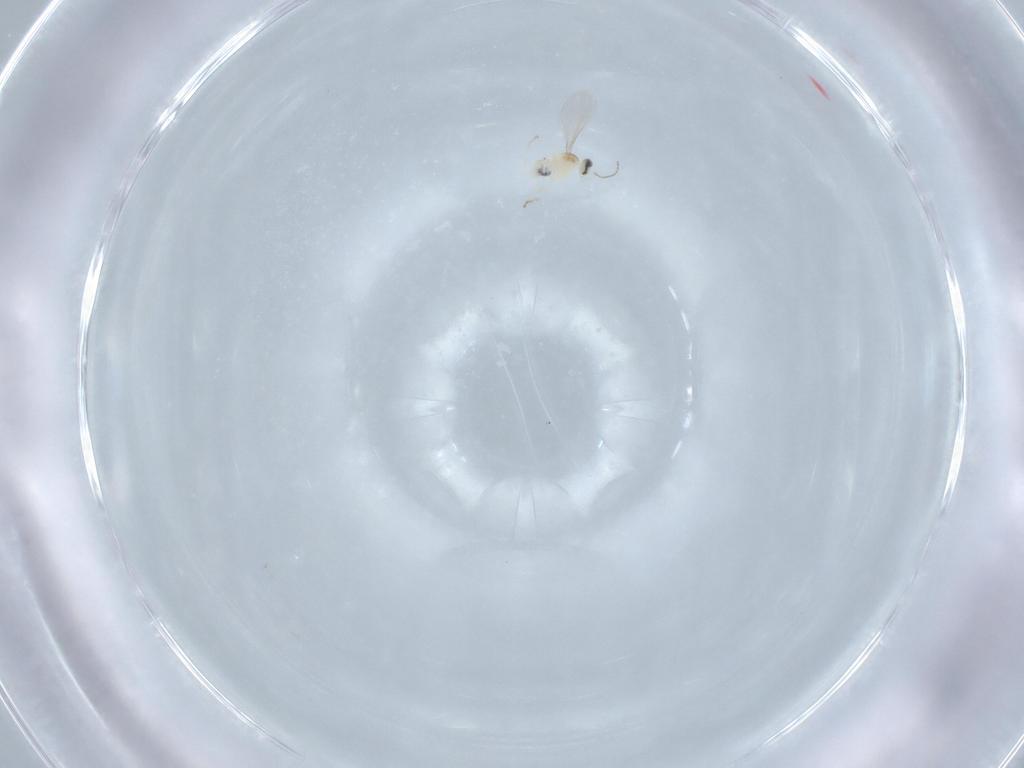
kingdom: Animalia
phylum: Arthropoda
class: Insecta
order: Diptera
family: Cecidomyiidae
